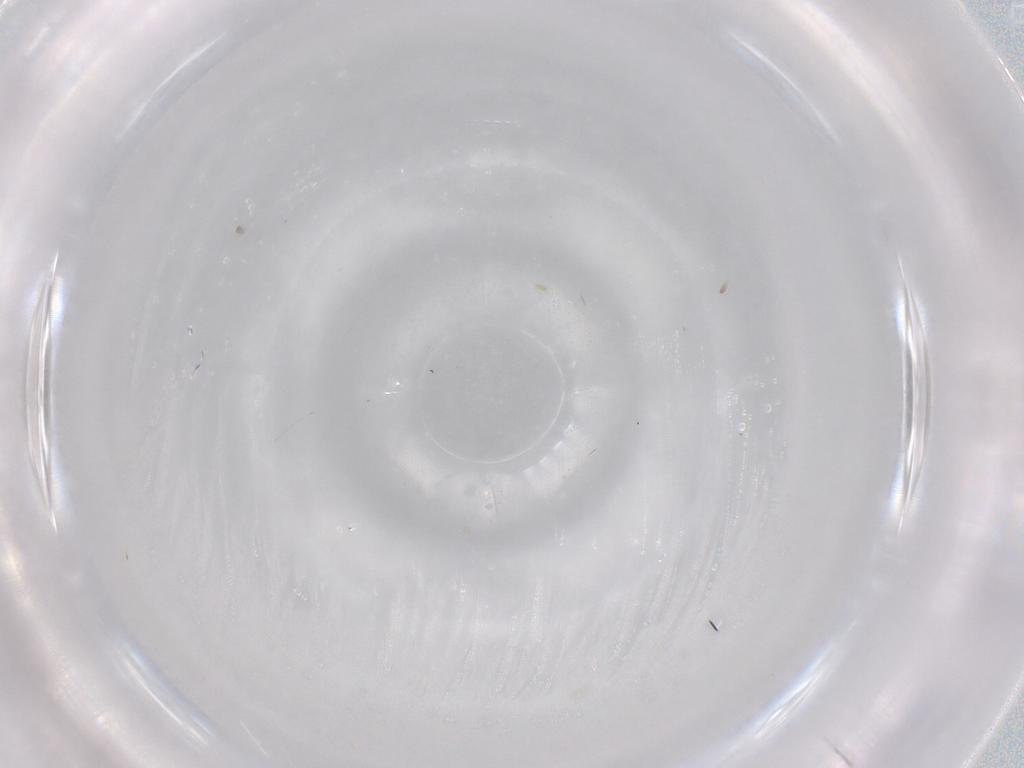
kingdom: Animalia
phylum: Arthropoda
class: Insecta
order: Diptera
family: Cecidomyiidae
